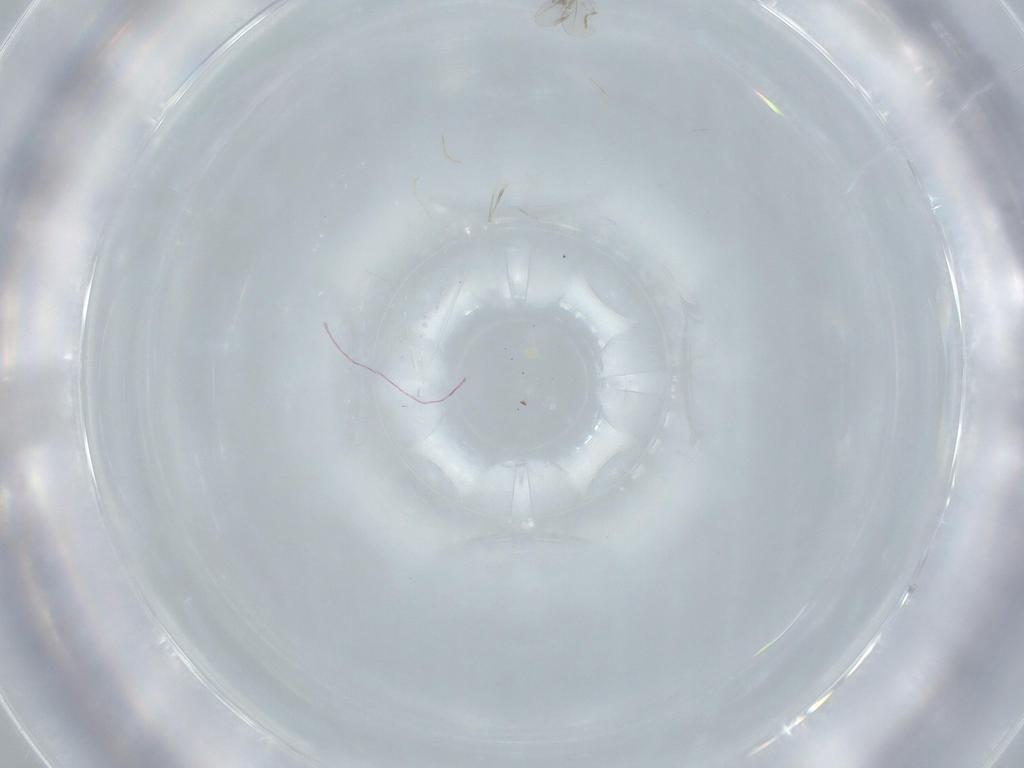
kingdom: Animalia
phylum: Arthropoda
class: Insecta
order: Diptera
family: Cecidomyiidae
